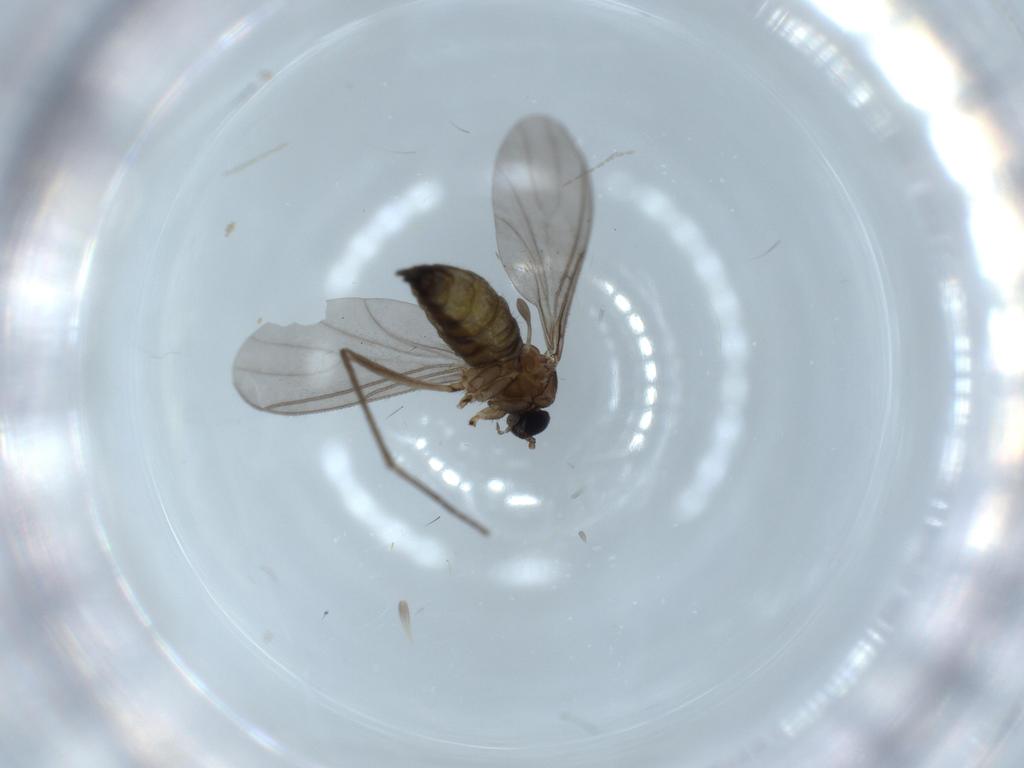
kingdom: Animalia
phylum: Arthropoda
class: Insecta
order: Diptera
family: Sciaridae
